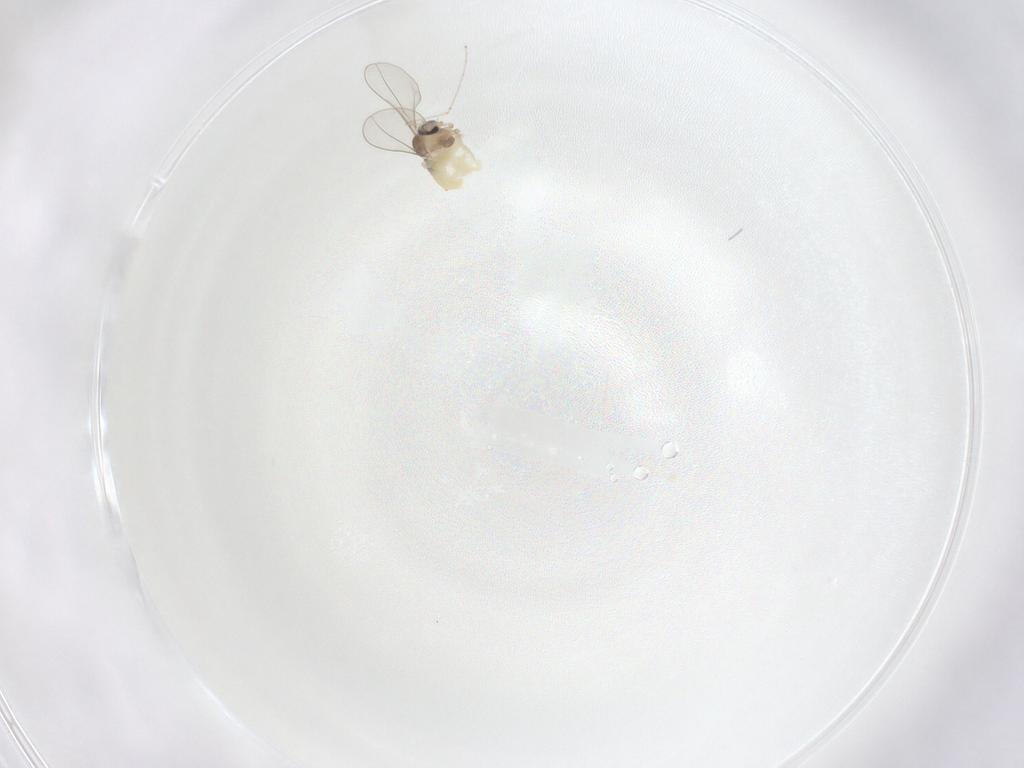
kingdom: Animalia
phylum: Arthropoda
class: Insecta
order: Diptera
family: Cecidomyiidae
